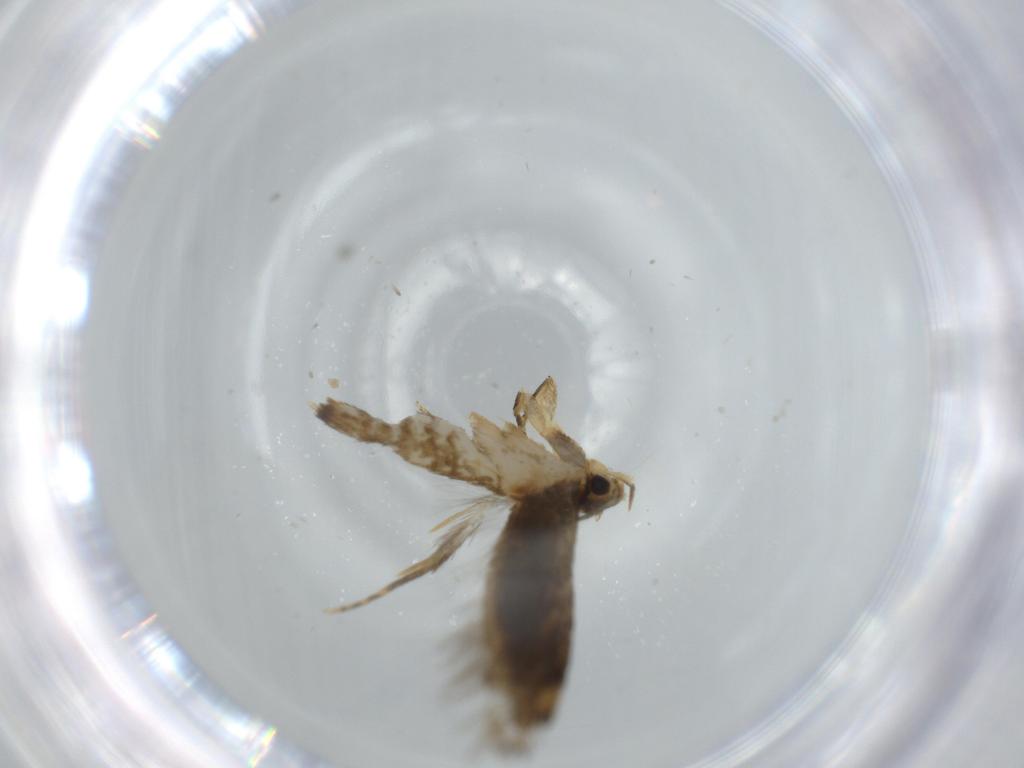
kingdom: Animalia
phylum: Arthropoda
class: Insecta
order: Lepidoptera
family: Tineidae
